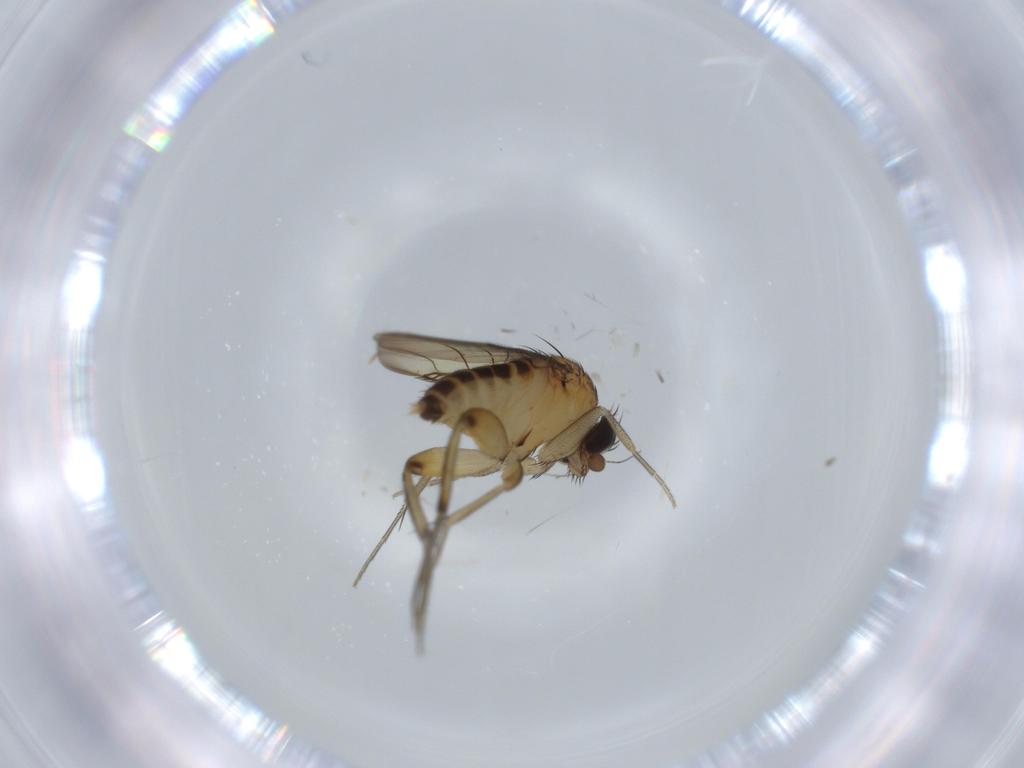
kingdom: Animalia
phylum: Arthropoda
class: Insecta
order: Diptera
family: Phoridae
